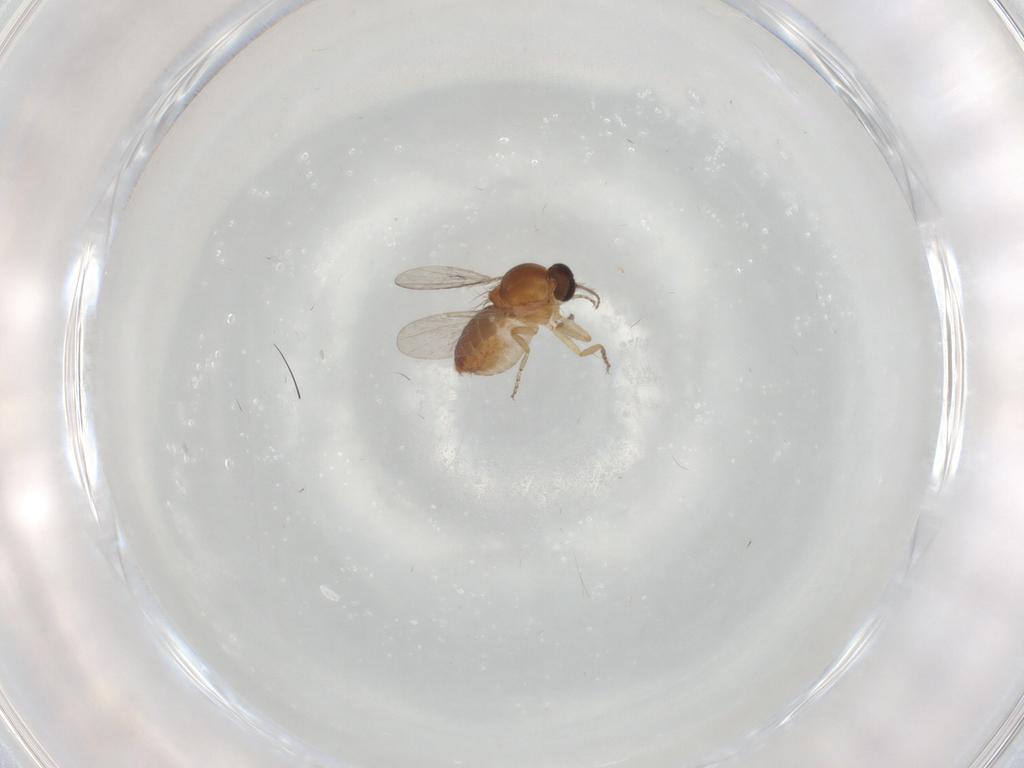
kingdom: Animalia
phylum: Arthropoda
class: Insecta
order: Diptera
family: Ceratopogonidae
